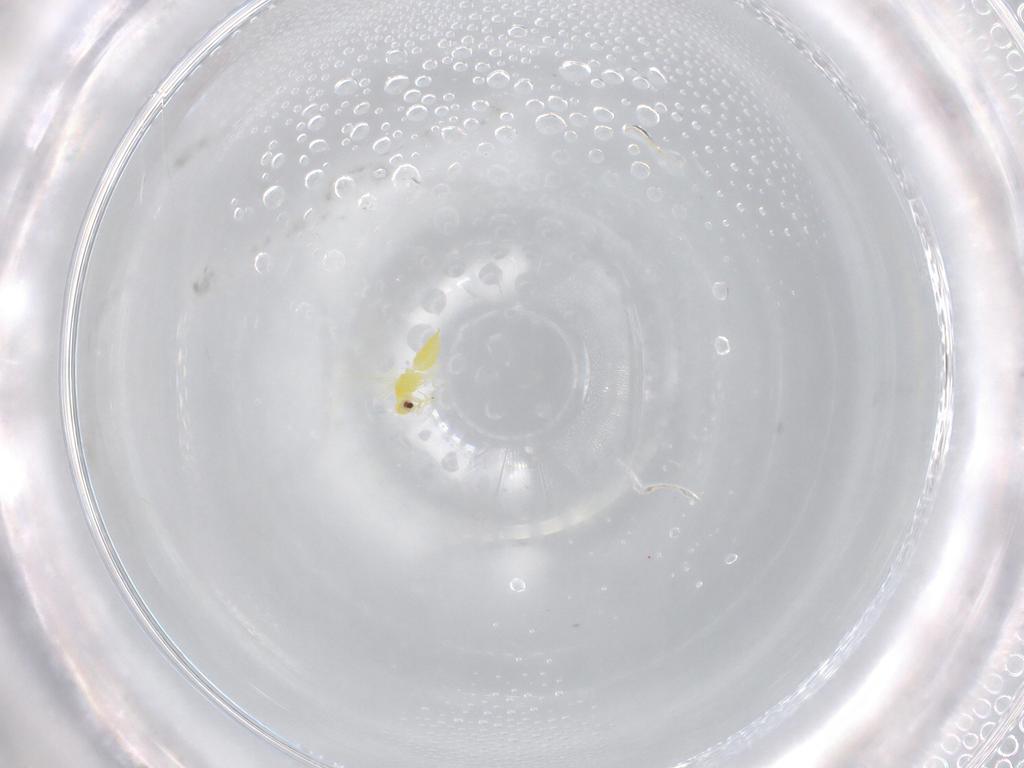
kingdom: Animalia
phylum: Arthropoda
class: Insecta
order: Hemiptera
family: Aleyrodidae
